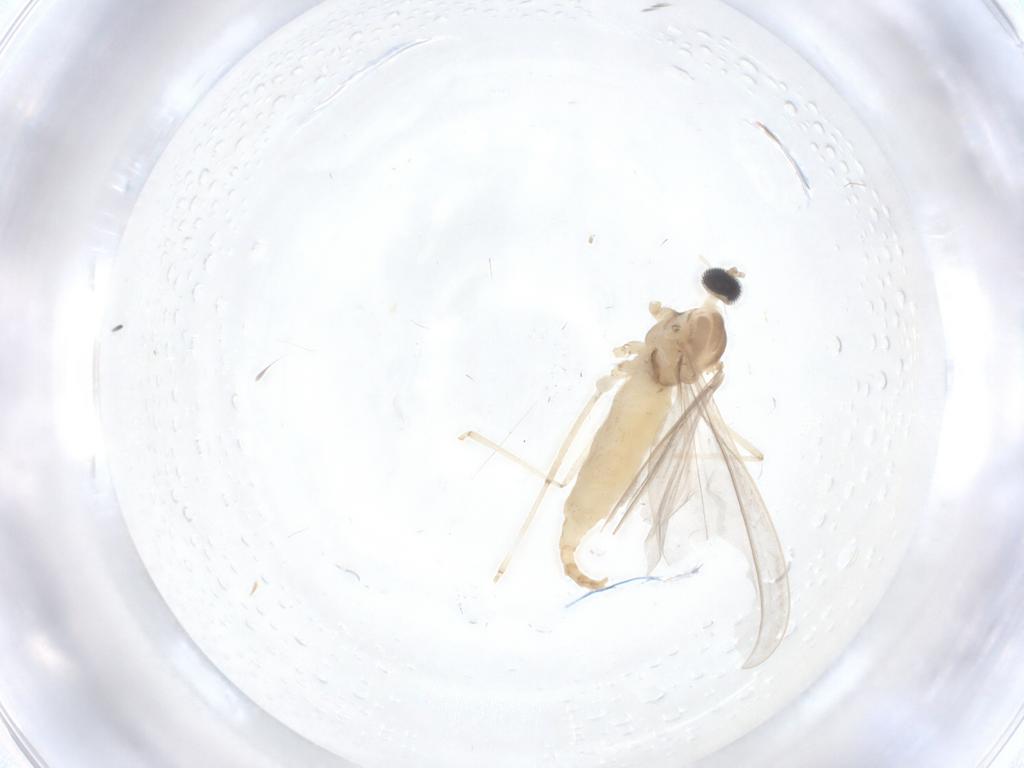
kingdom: Animalia
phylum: Arthropoda
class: Insecta
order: Diptera
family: Cecidomyiidae
